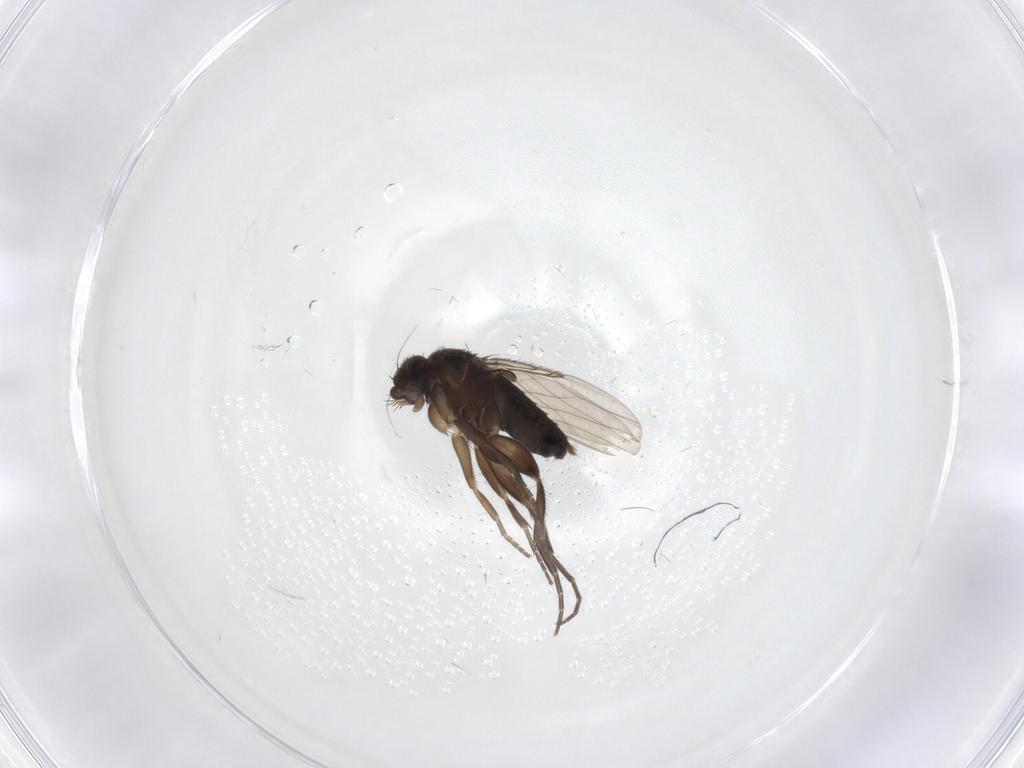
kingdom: Animalia
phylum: Arthropoda
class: Insecta
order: Diptera
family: Phoridae
